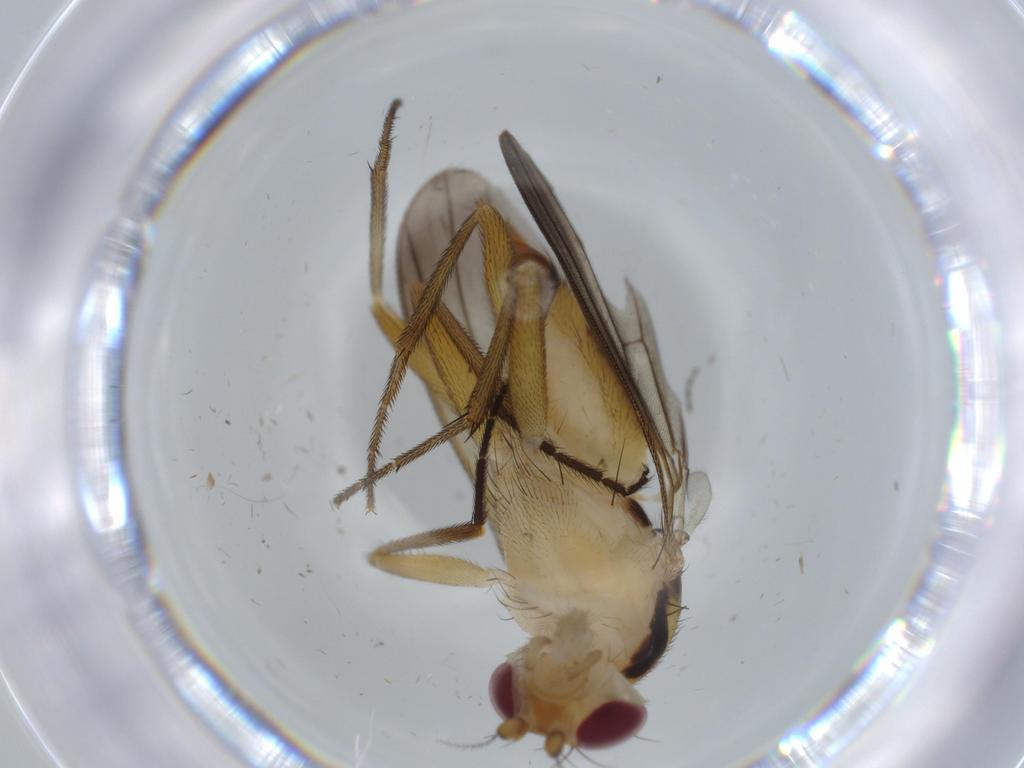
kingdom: Animalia
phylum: Arthropoda
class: Insecta
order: Diptera
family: Clusiidae
